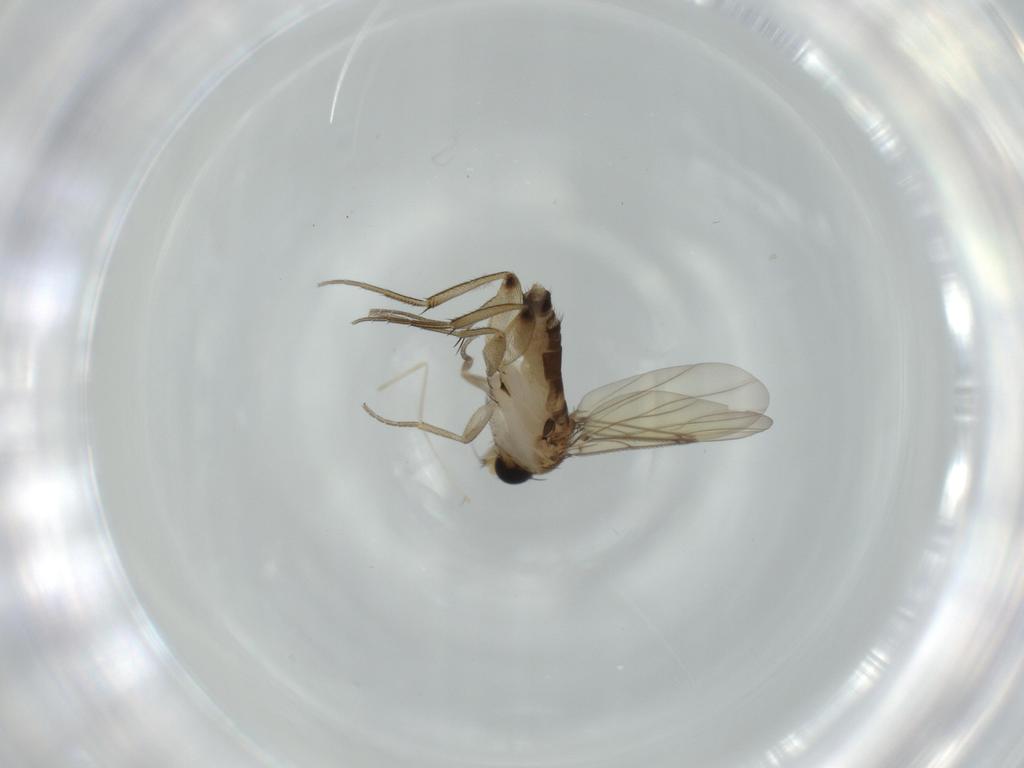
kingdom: Animalia
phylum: Arthropoda
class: Insecta
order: Diptera
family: Phoridae
